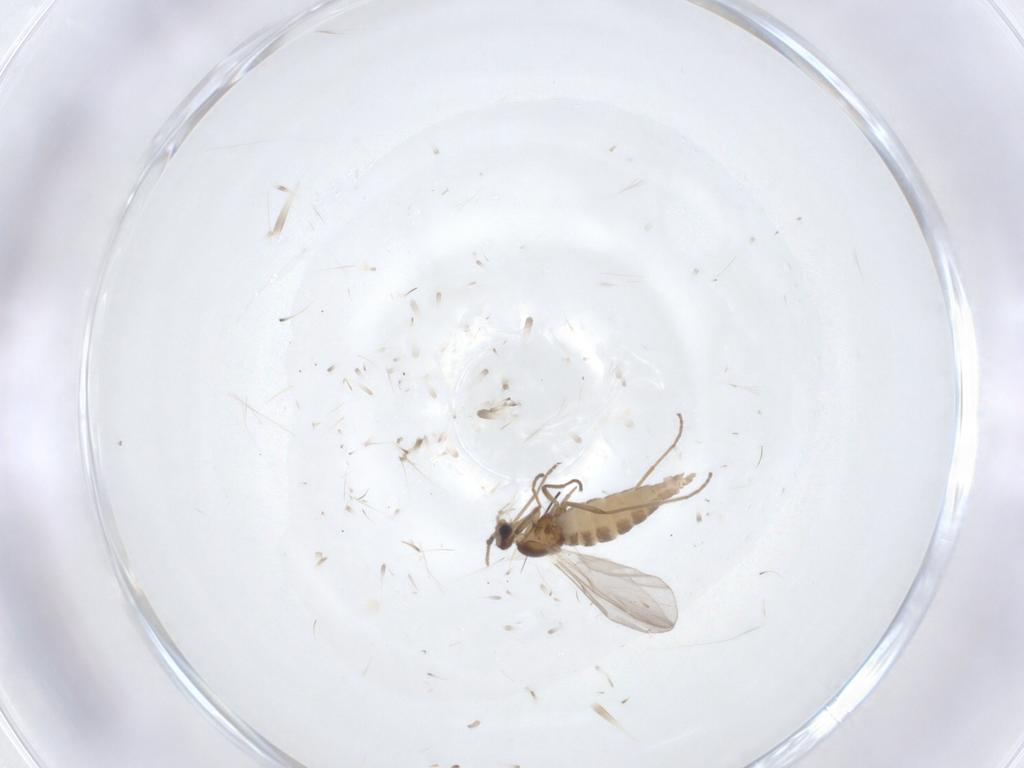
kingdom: Animalia
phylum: Arthropoda
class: Insecta
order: Diptera
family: Cecidomyiidae
